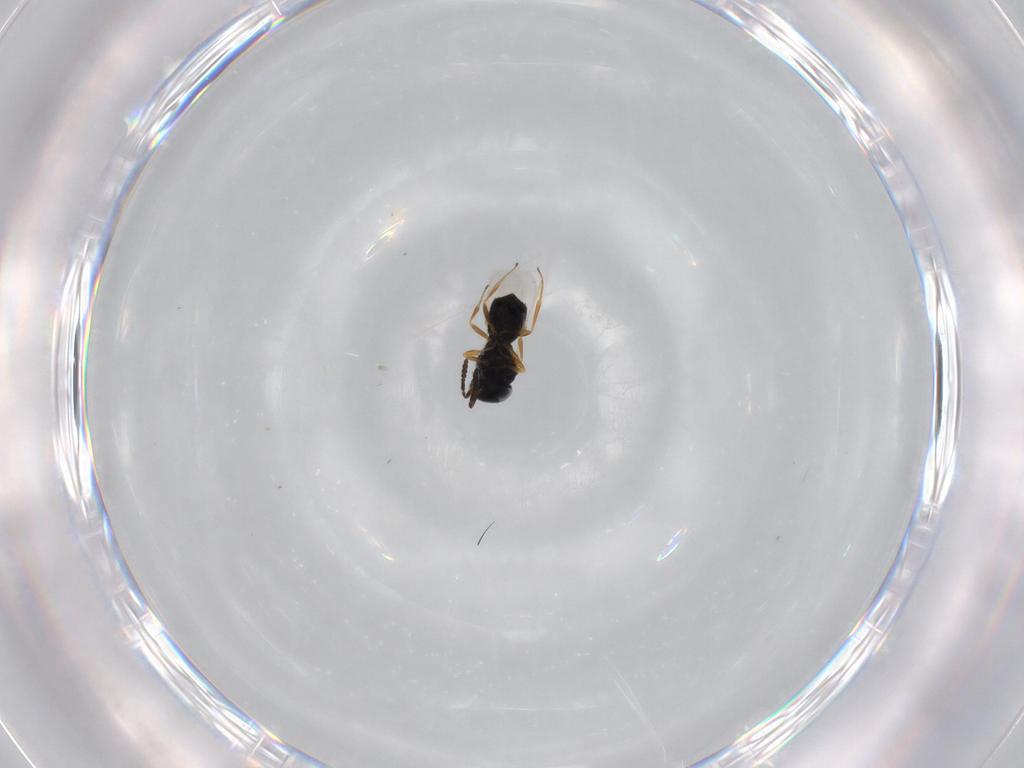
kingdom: Animalia
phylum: Arthropoda
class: Insecta
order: Hymenoptera
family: Scelionidae
